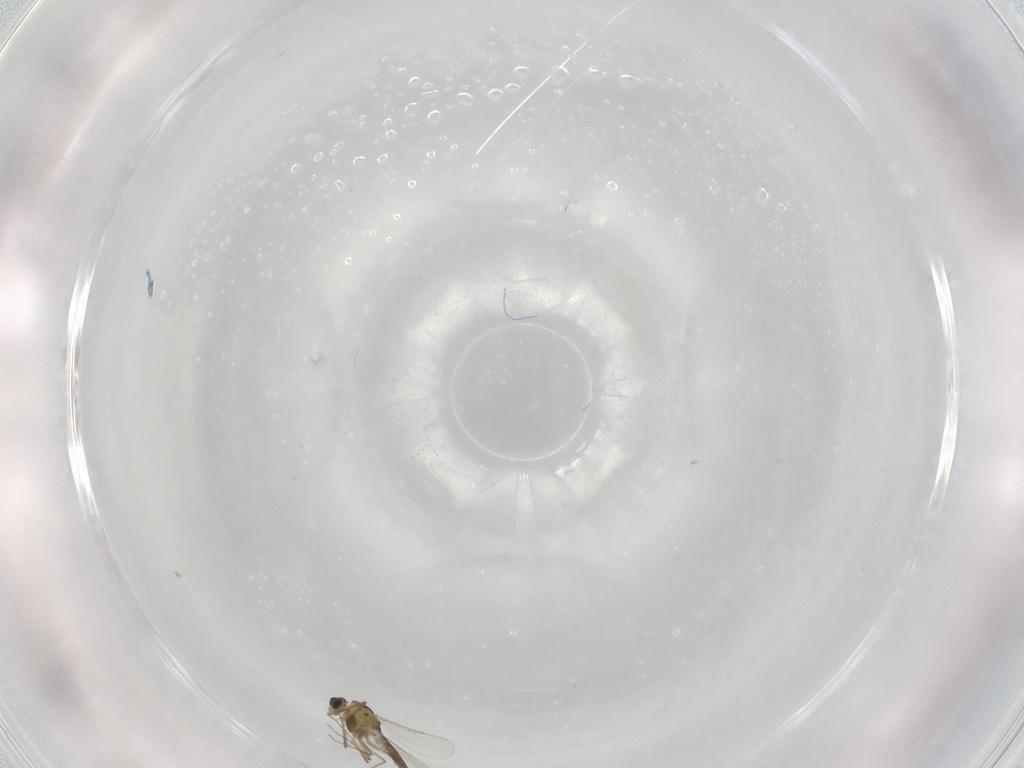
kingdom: Animalia
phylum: Arthropoda
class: Insecta
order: Diptera
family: Chironomidae
